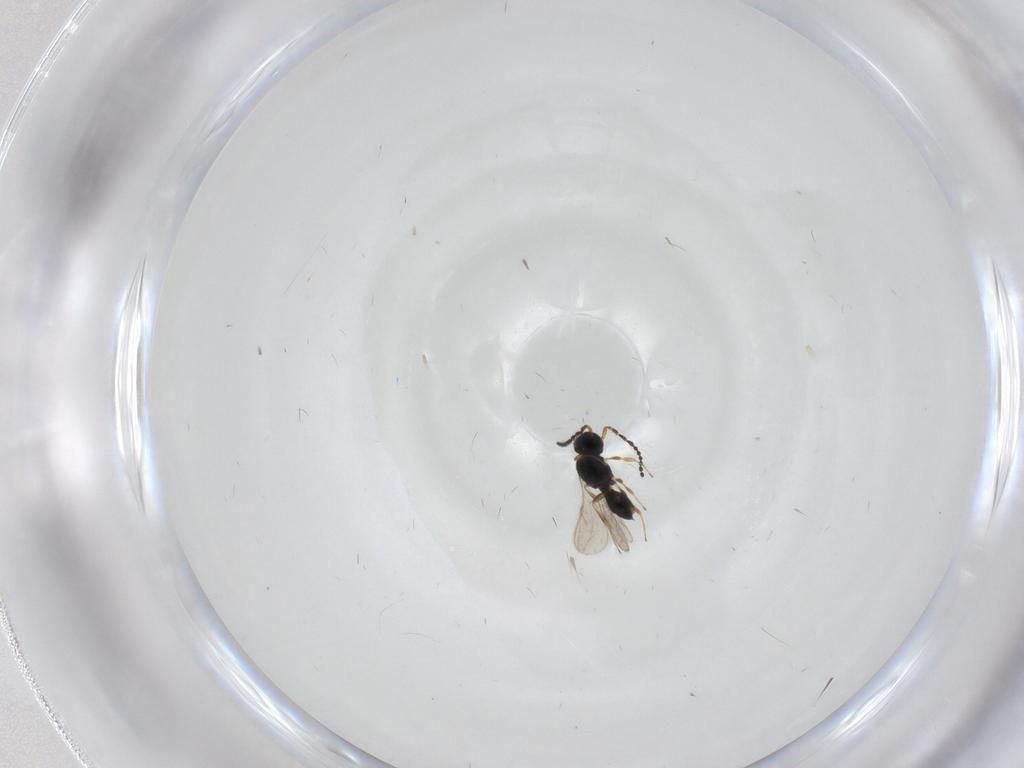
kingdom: Animalia
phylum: Arthropoda
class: Insecta
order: Hymenoptera
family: Scelionidae
